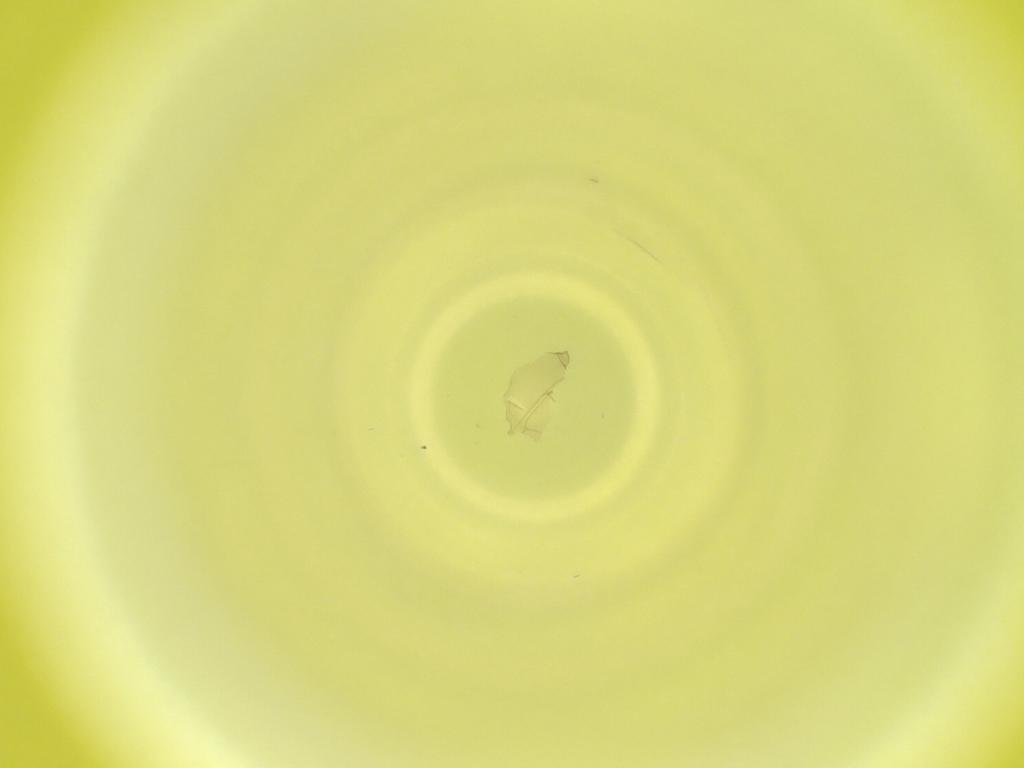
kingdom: Animalia
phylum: Arthropoda
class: Insecta
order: Diptera
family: Cecidomyiidae
